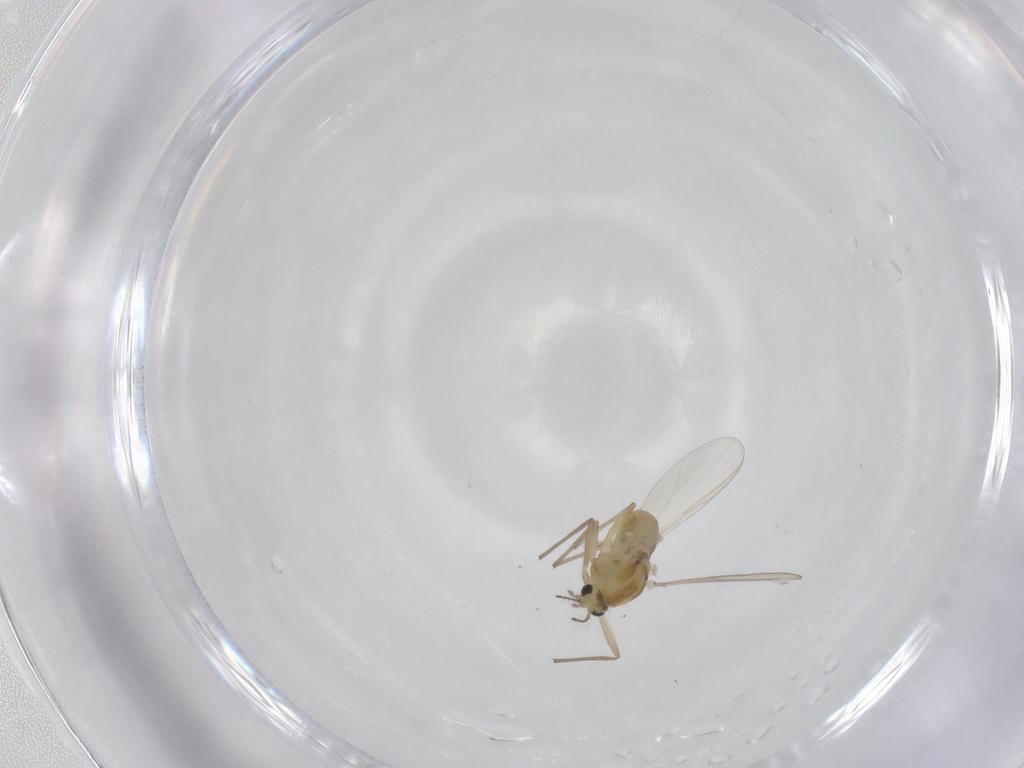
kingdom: Animalia
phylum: Arthropoda
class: Insecta
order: Diptera
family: Chironomidae
